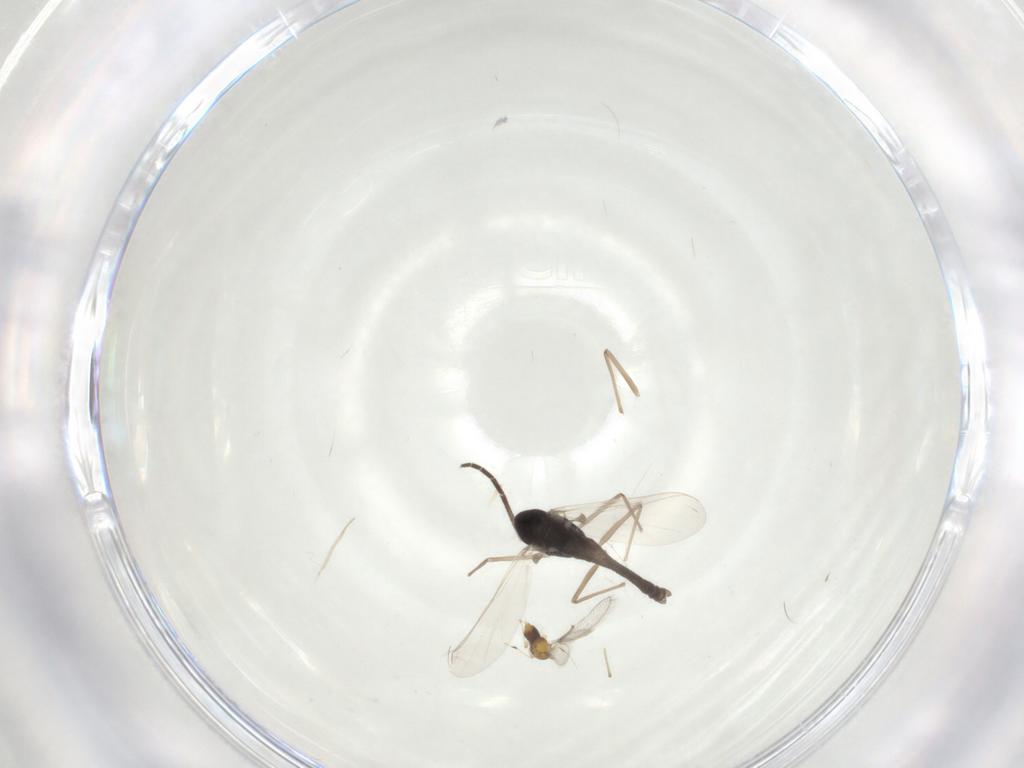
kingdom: Animalia
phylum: Arthropoda
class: Insecta
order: Diptera
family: Chironomidae
